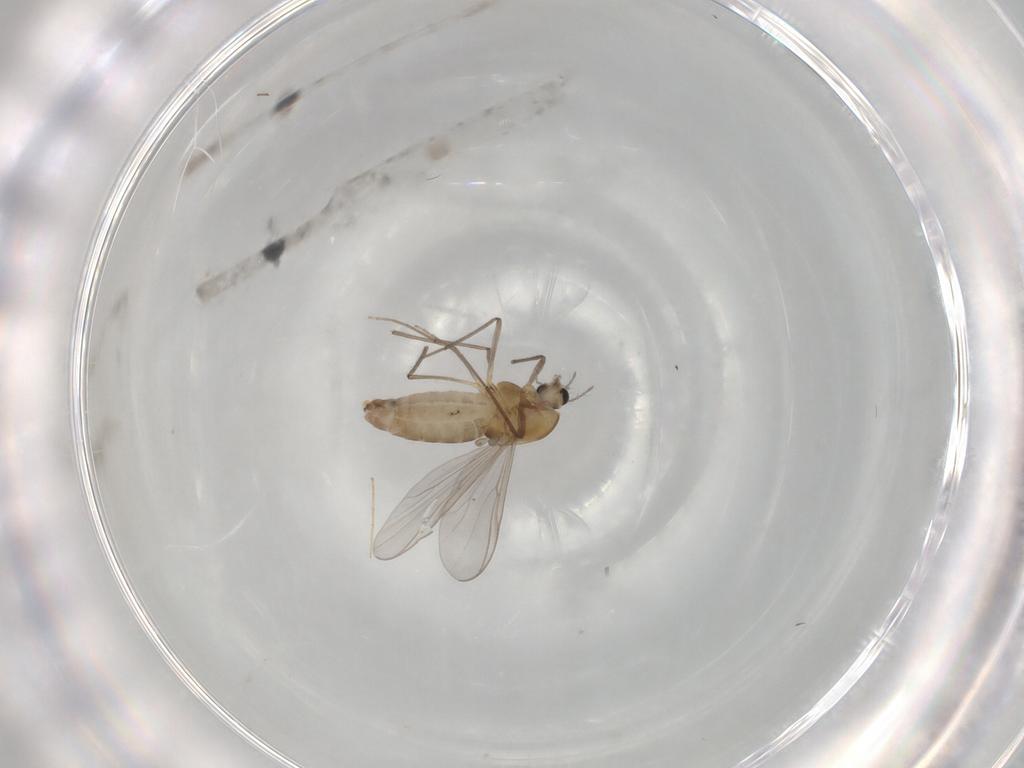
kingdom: Animalia
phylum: Arthropoda
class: Insecta
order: Diptera
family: Chironomidae
